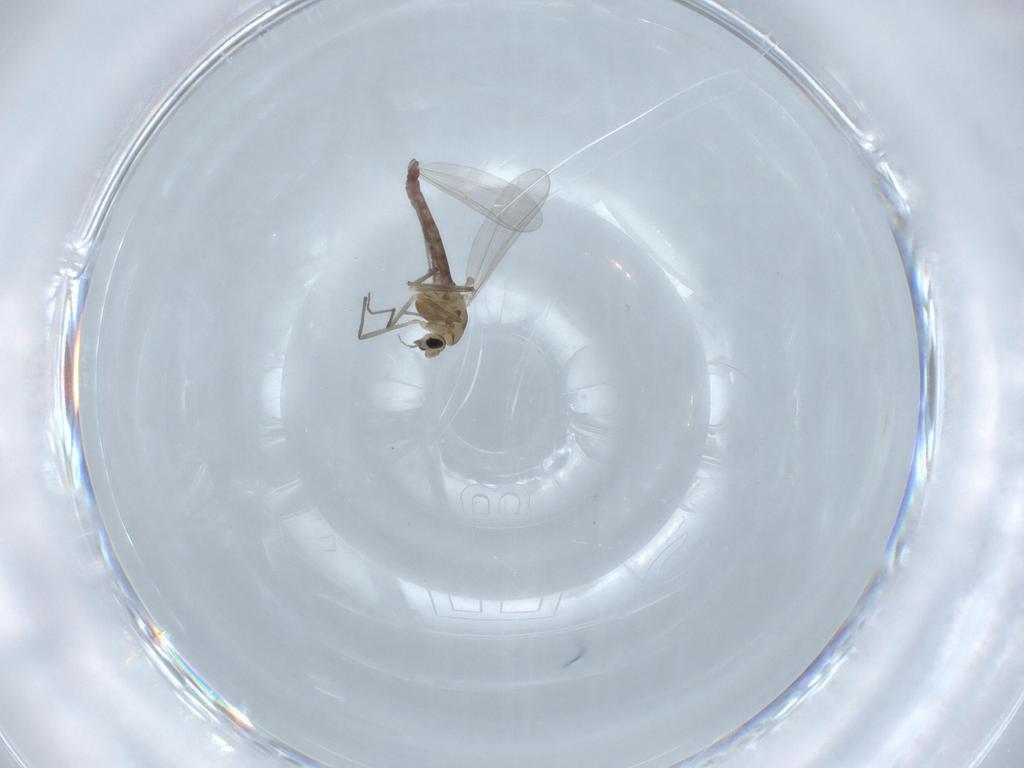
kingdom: Animalia
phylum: Arthropoda
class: Insecta
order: Diptera
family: Chironomidae
